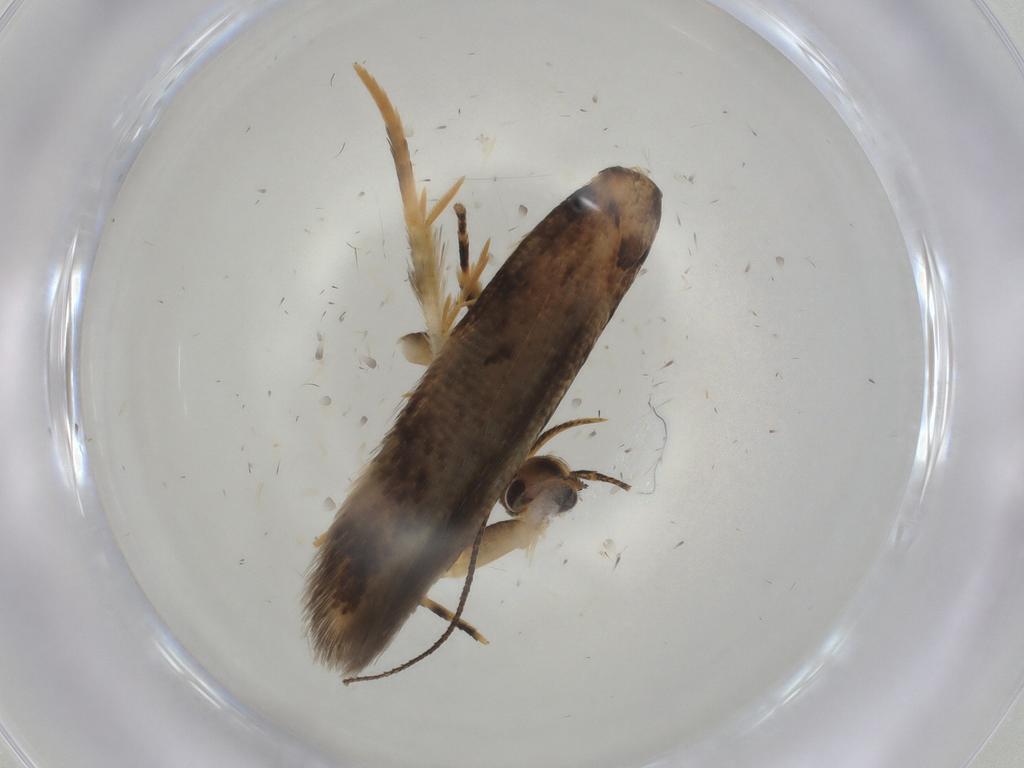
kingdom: Animalia
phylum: Arthropoda
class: Insecta
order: Lepidoptera
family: Cosmopterigidae
